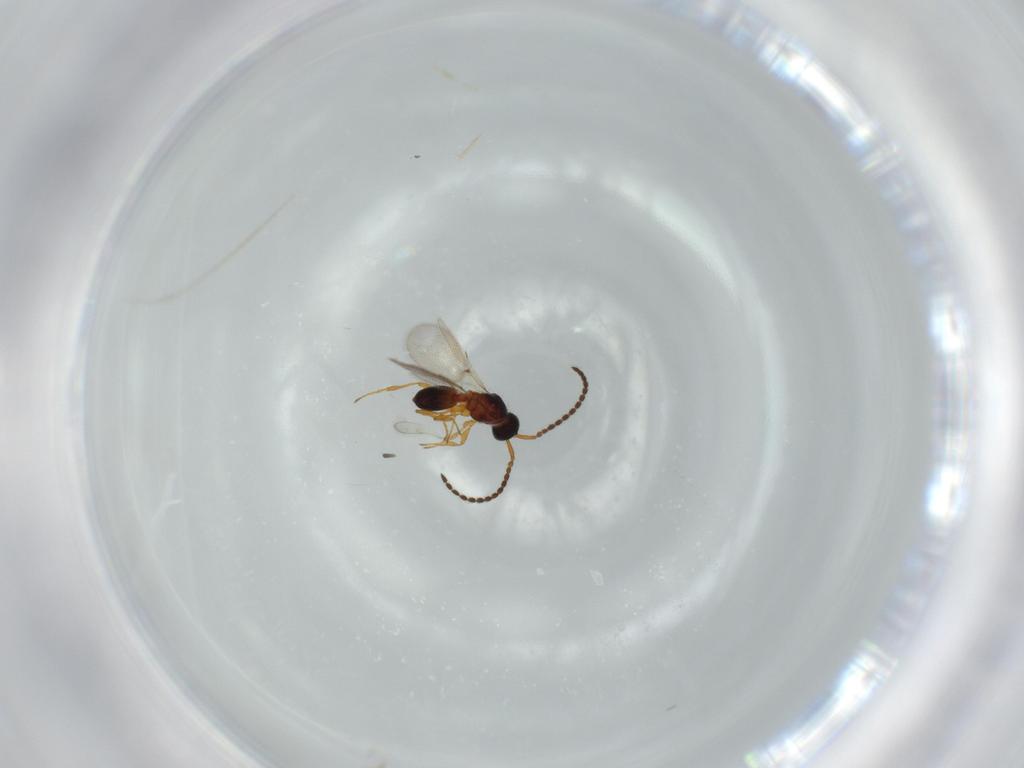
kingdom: Animalia
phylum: Arthropoda
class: Insecta
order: Hymenoptera
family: Diapriidae
